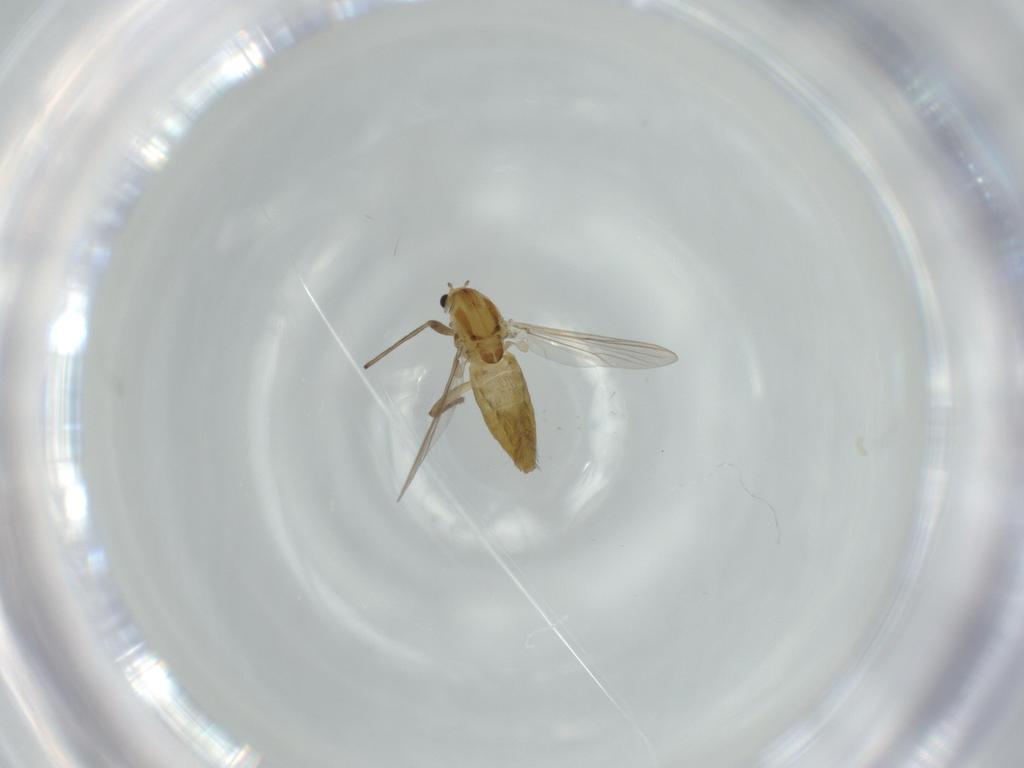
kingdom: Animalia
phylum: Arthropoda
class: Insecta
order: Diptera
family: Chironomidae
